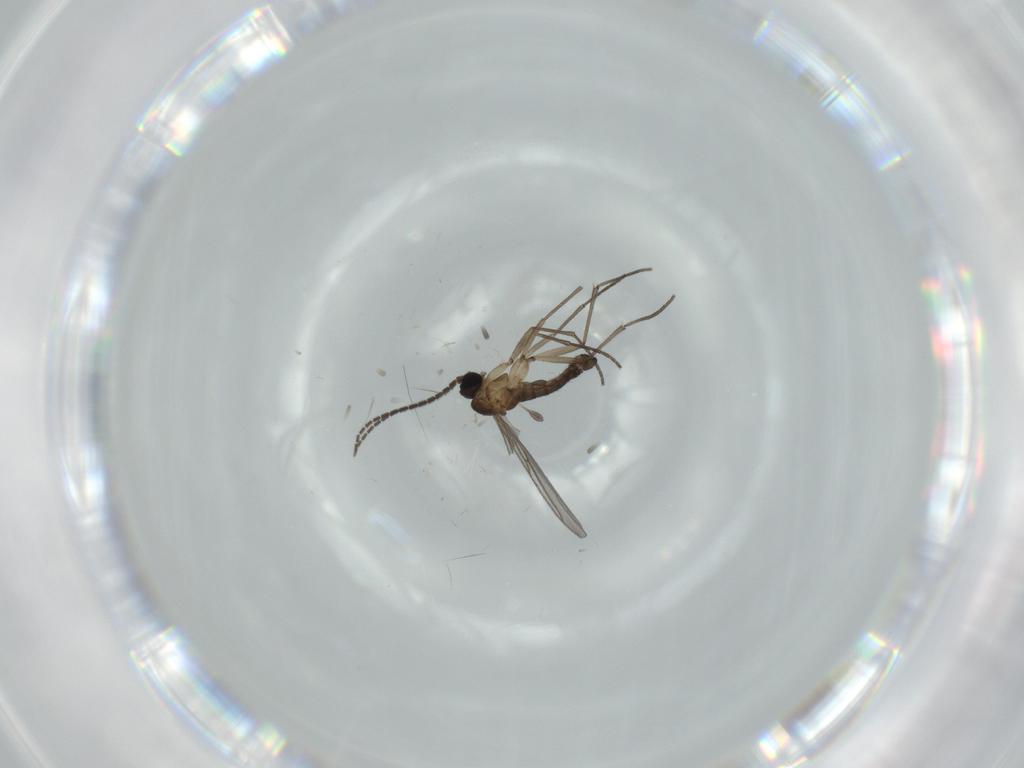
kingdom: Animalia
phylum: Arthropoda
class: Insecta
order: Diptera
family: Sciaridae
